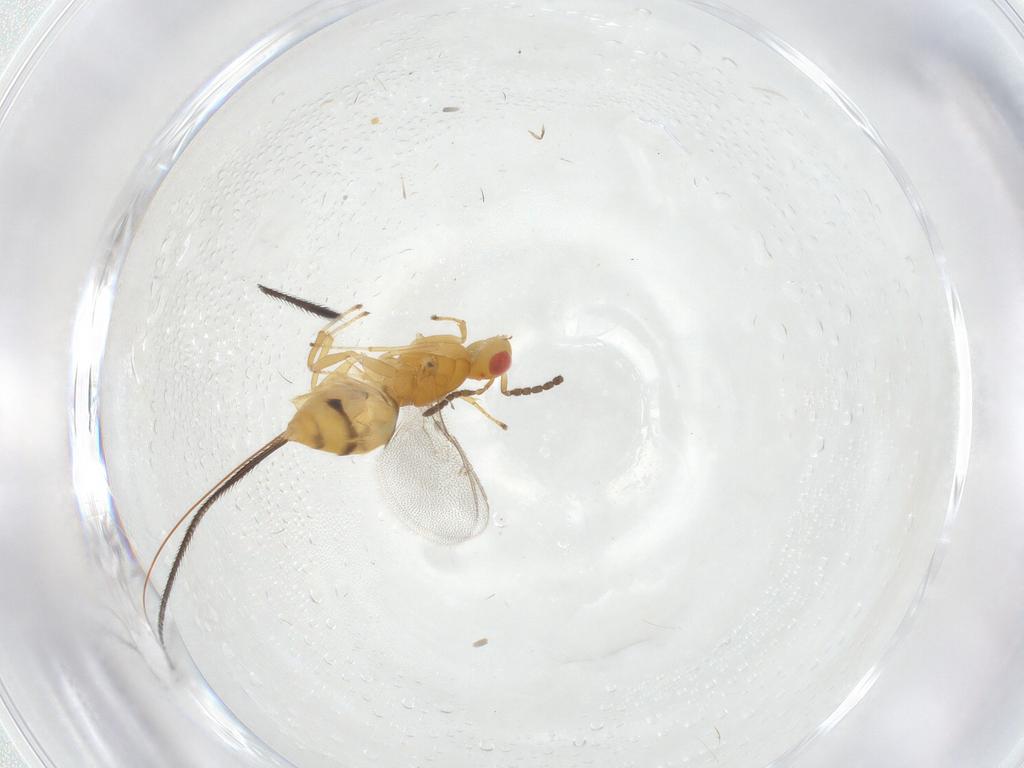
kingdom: Animalia
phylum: Arthropoda
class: Insecta
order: Hymenoptera
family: Pteromalidae
